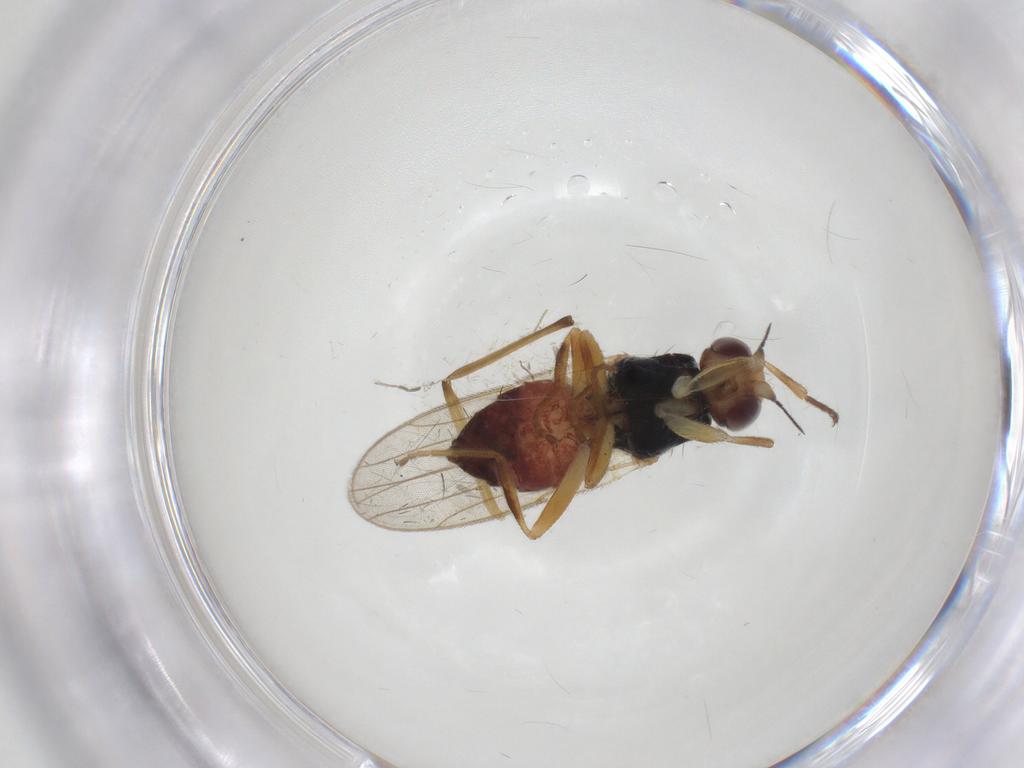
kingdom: Animalia
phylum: Arthropoda
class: Insecta
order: Diptera
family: Chloropidae
